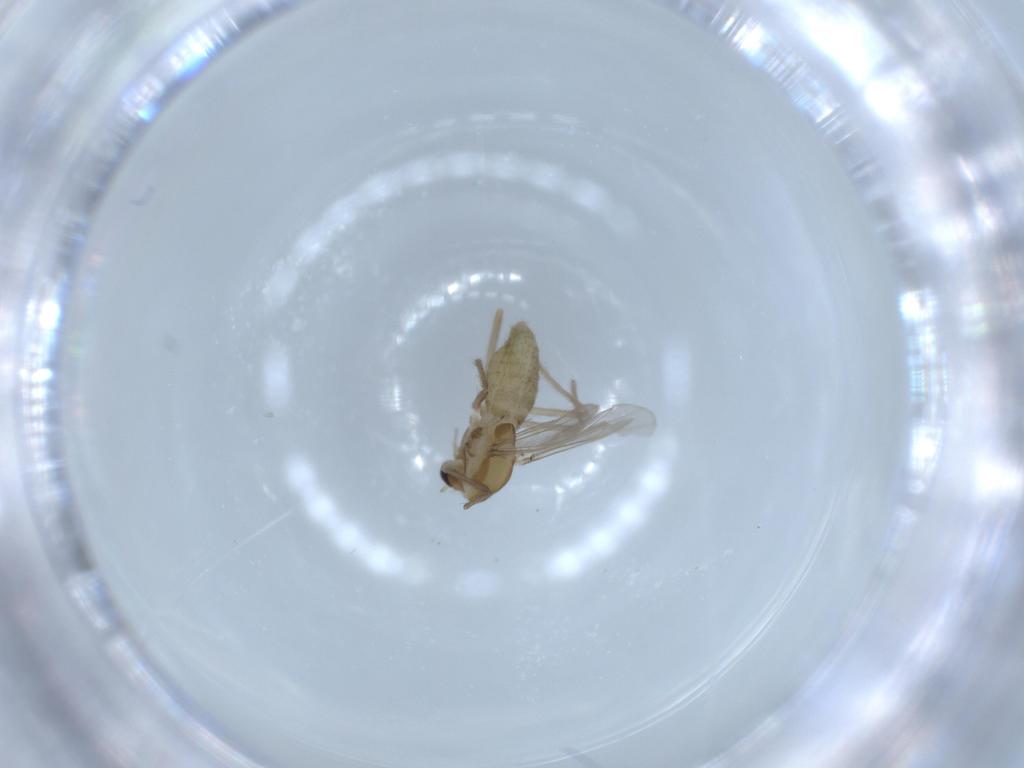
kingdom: Animalia
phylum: Arthropoda
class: Insecta
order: Diptera
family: Chironomidae
